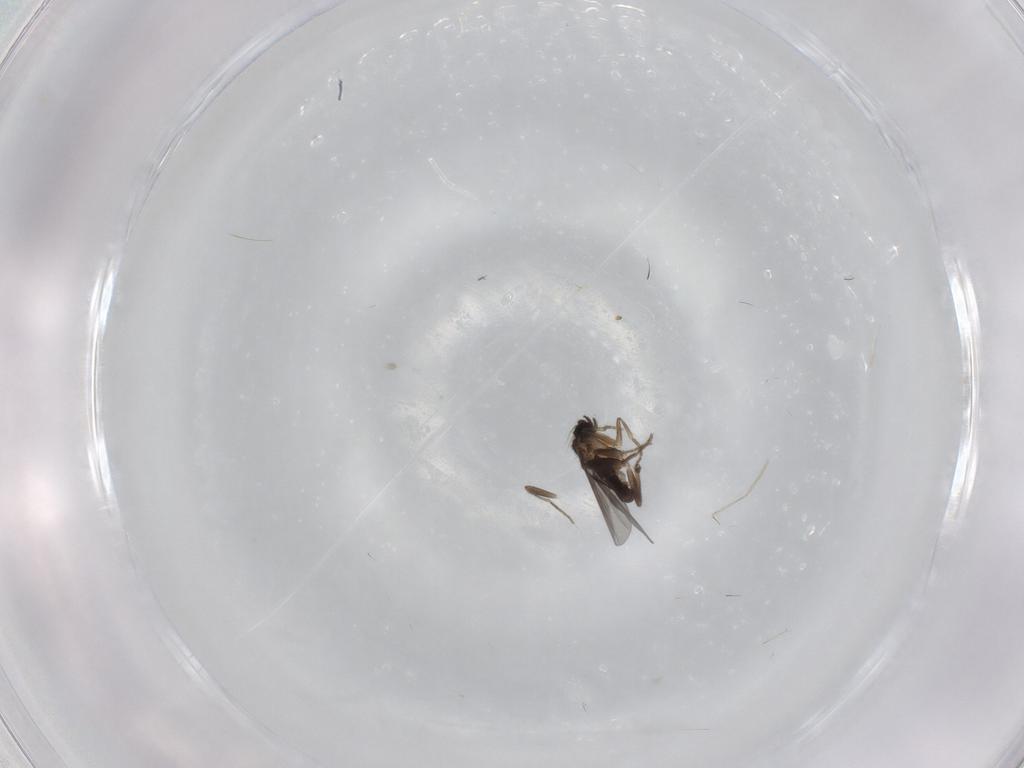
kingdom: Animalia
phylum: Arthropoda
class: Insecta
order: Diptera
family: Phoridae
